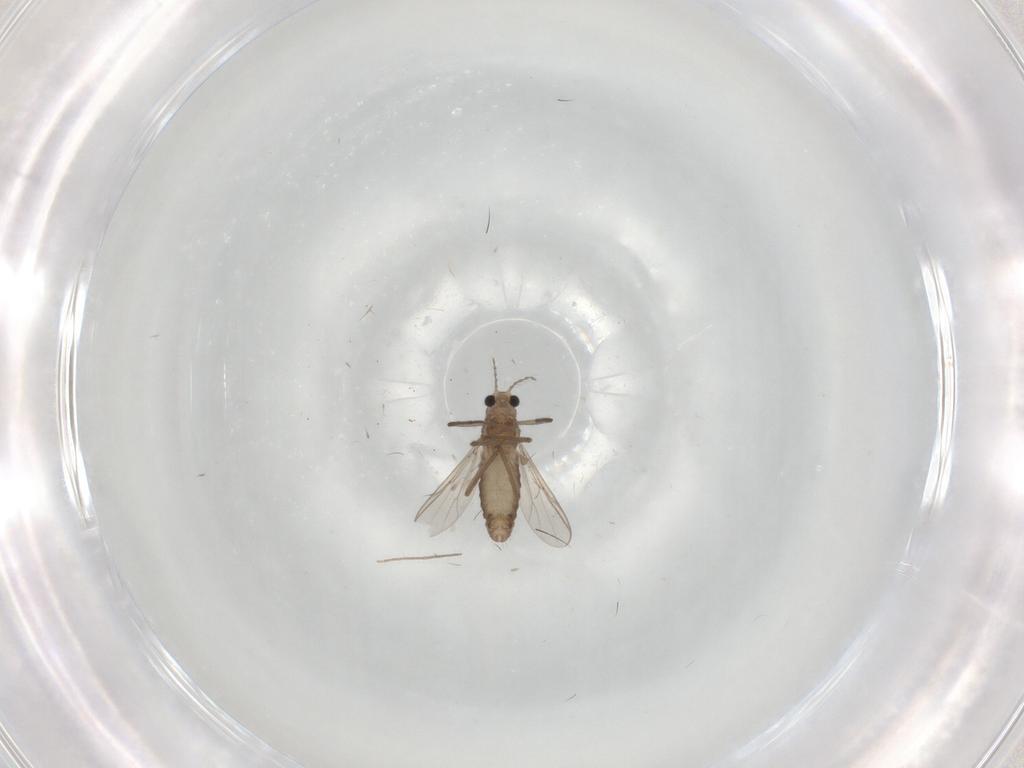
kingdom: Animalia
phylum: Arthropoda
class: Insecta
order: Diptera
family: Chironomidae
